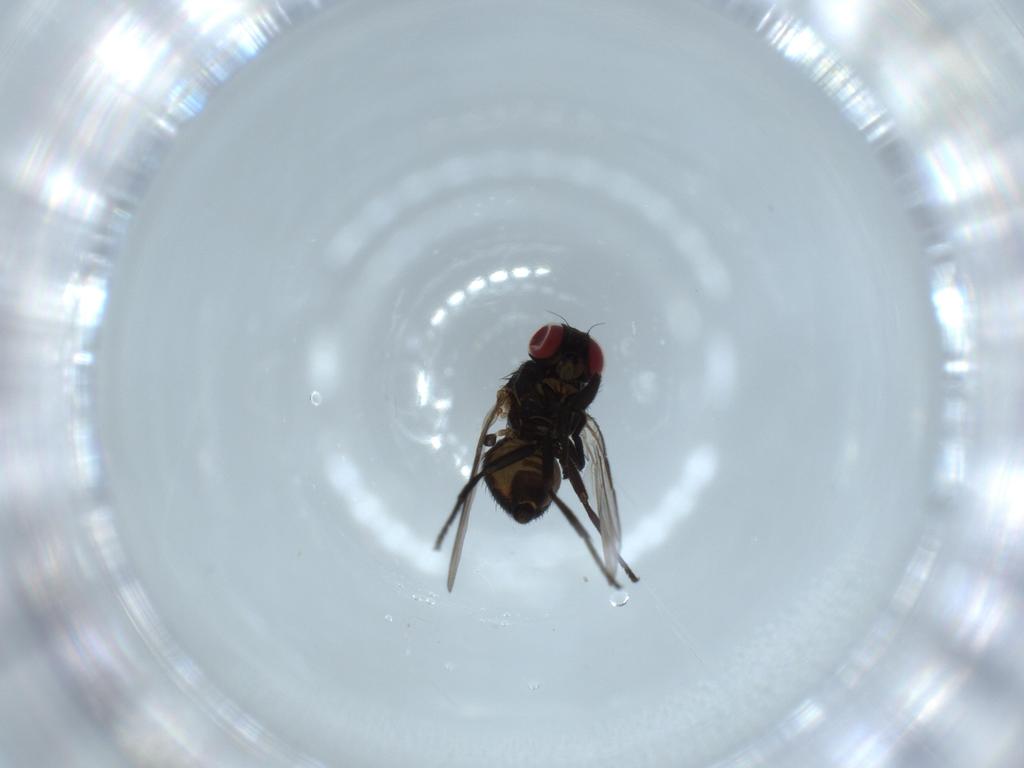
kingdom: Animalia
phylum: Arthropoda
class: Insecta
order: Diptera
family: Agromyzidae
